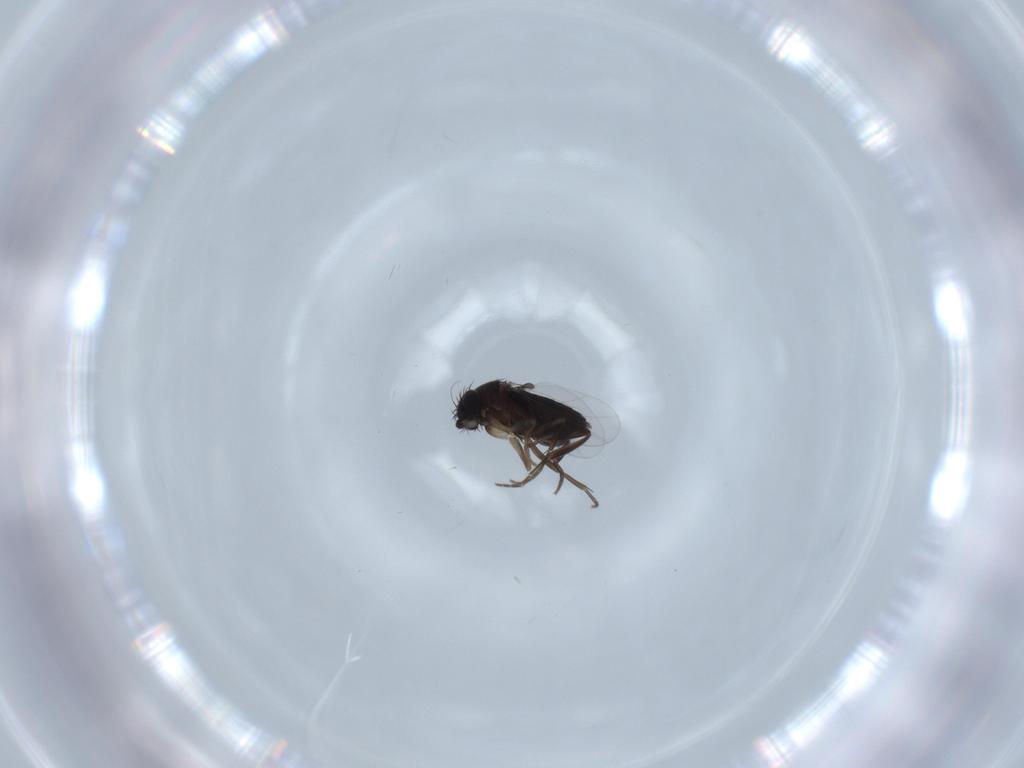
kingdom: Animalia
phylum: Arthropoda
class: Insecta
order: Diptera
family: Phoridae
